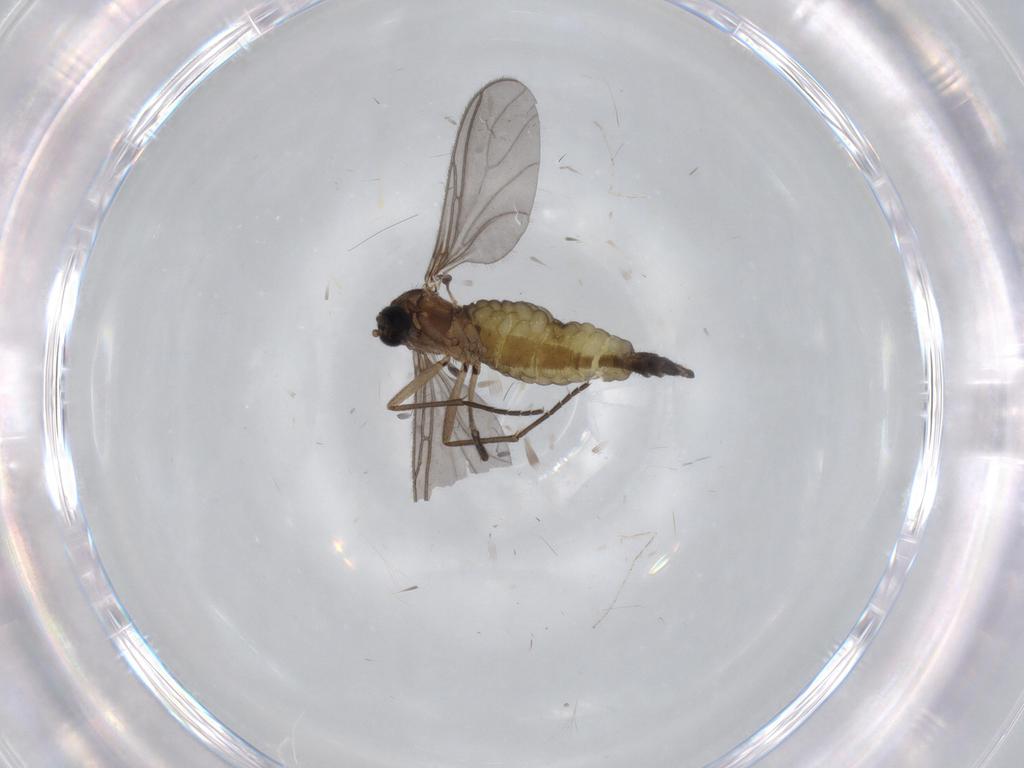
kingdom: Animalia
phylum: Arthropoda
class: Insecta
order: Diptera
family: Sciaridae
